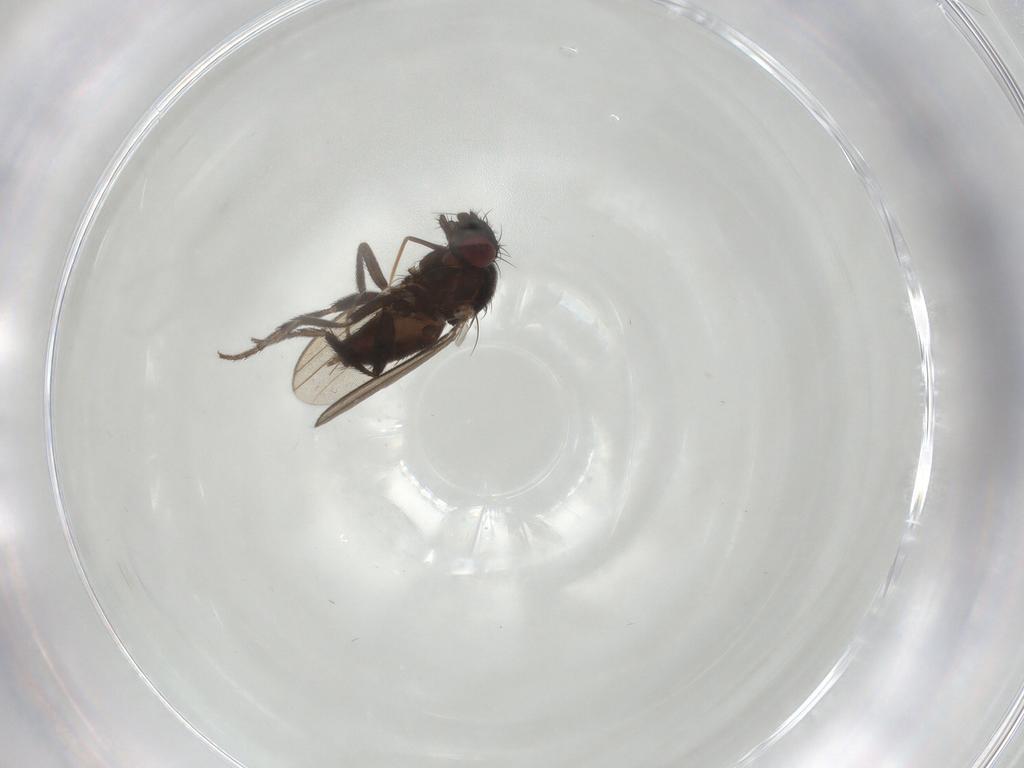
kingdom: Animalia
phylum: Arthropoda
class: Insecta
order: Diptera
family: Milichiidae
